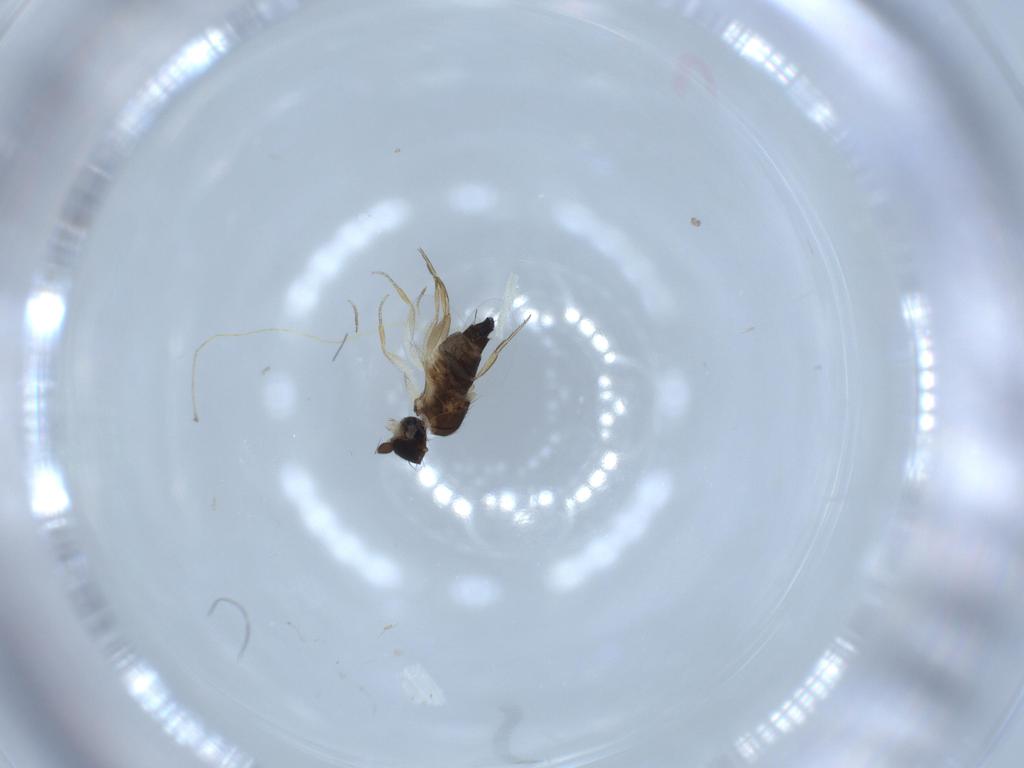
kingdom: Animalia
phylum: Arthropoda
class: Insecta
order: Diptera
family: Phoridae
